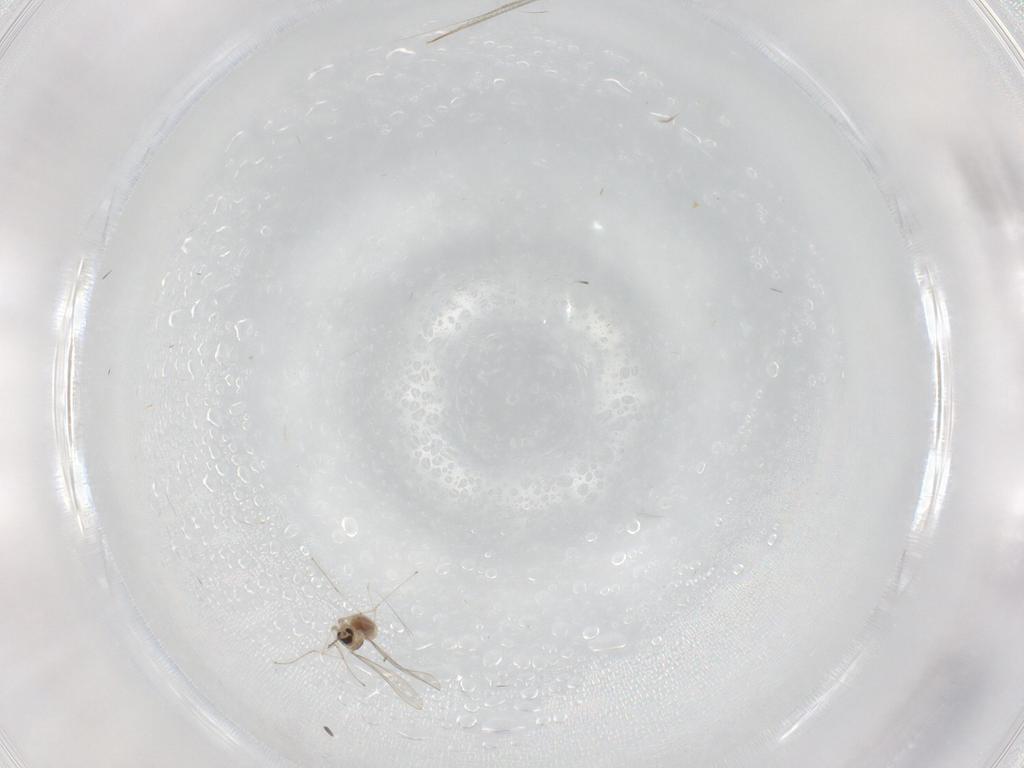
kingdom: Animalia
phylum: Arthropoda
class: Insecta
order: Diptera
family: Cecidomyiidae
